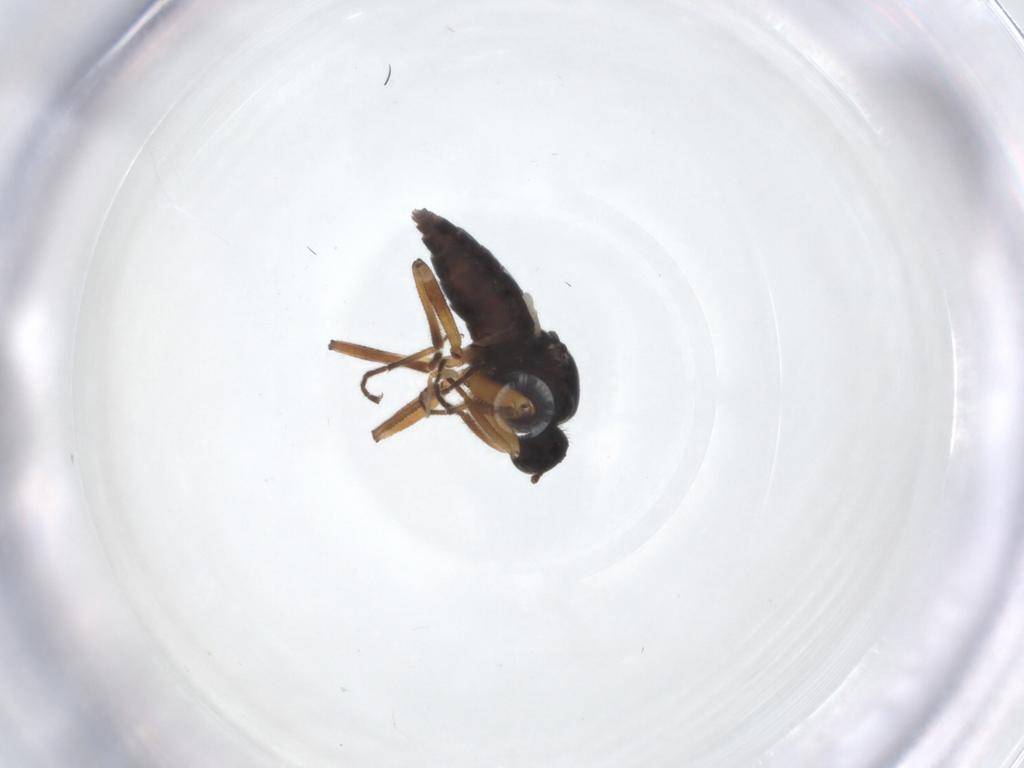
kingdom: Animalia
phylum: Arthropoda
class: Insecta
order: Diptera
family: Hybotidae
